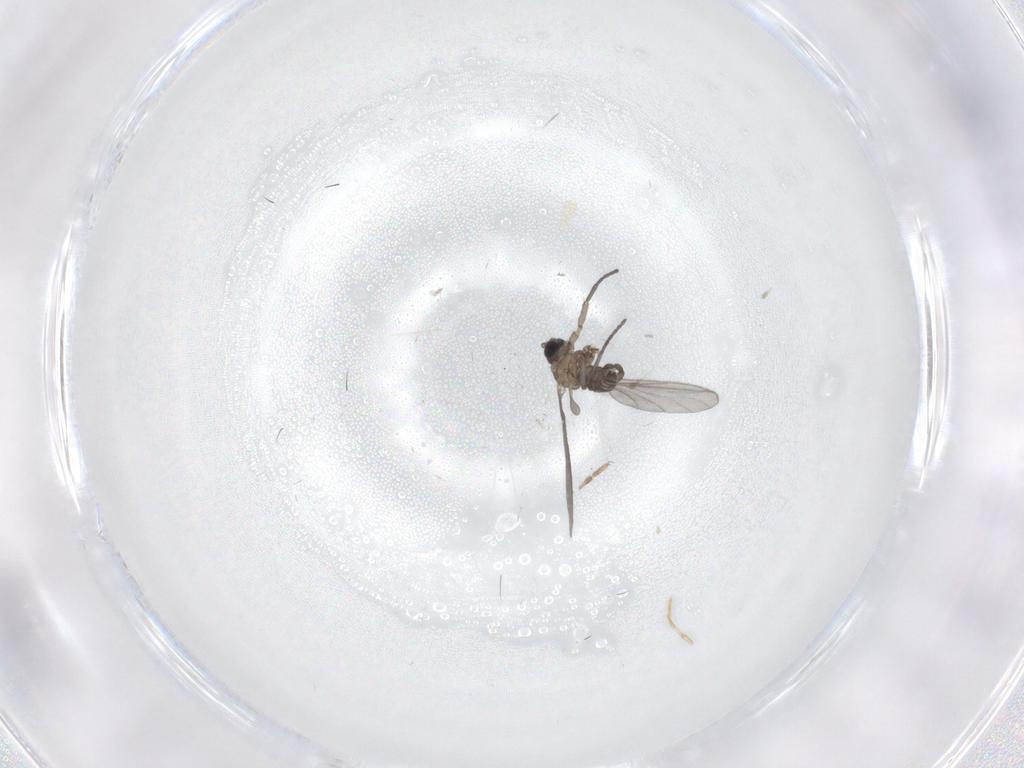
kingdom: Animalia
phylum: Arthropoda
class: Insecta
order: Diptera
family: Sciaridae
